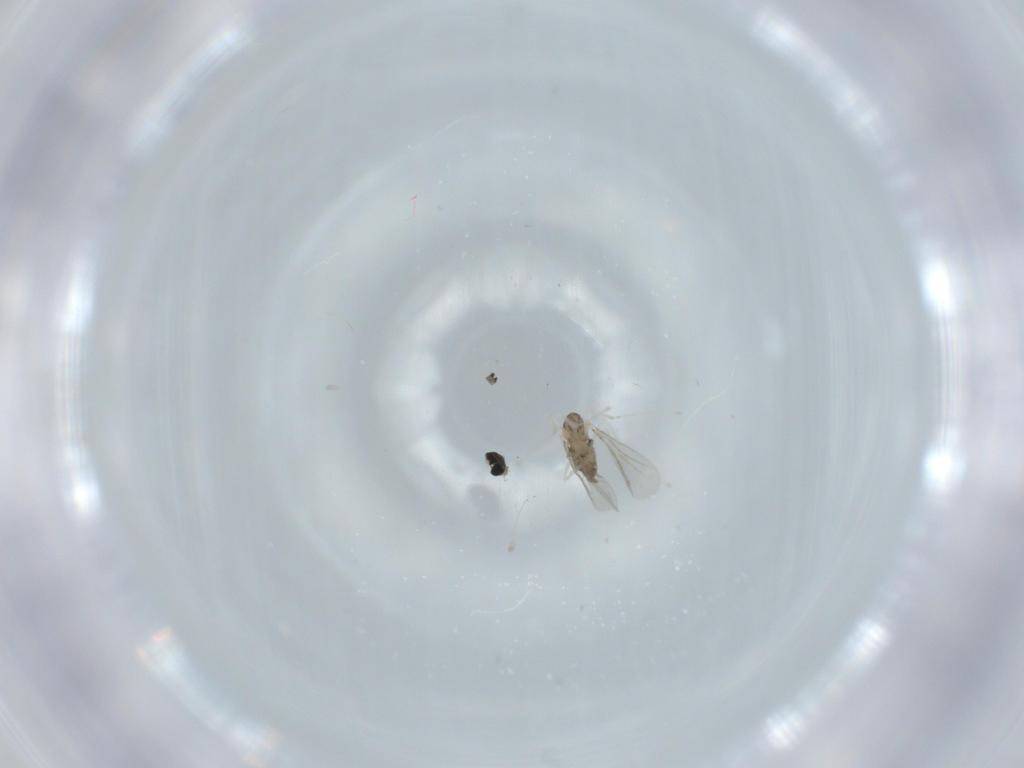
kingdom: Animalia
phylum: Arthropoda
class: Insecta
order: Diptera
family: Cecidomyiidae
